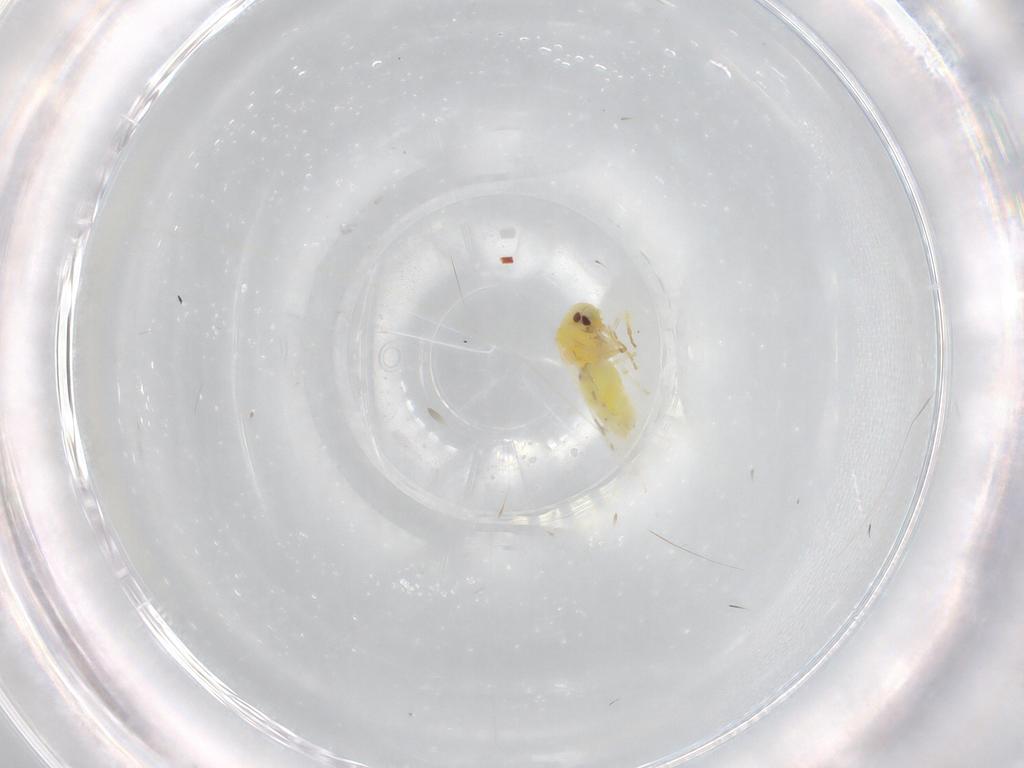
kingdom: Animalia
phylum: Arthropoda
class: Insecta
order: Hemiptera
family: Aleyrodidae
